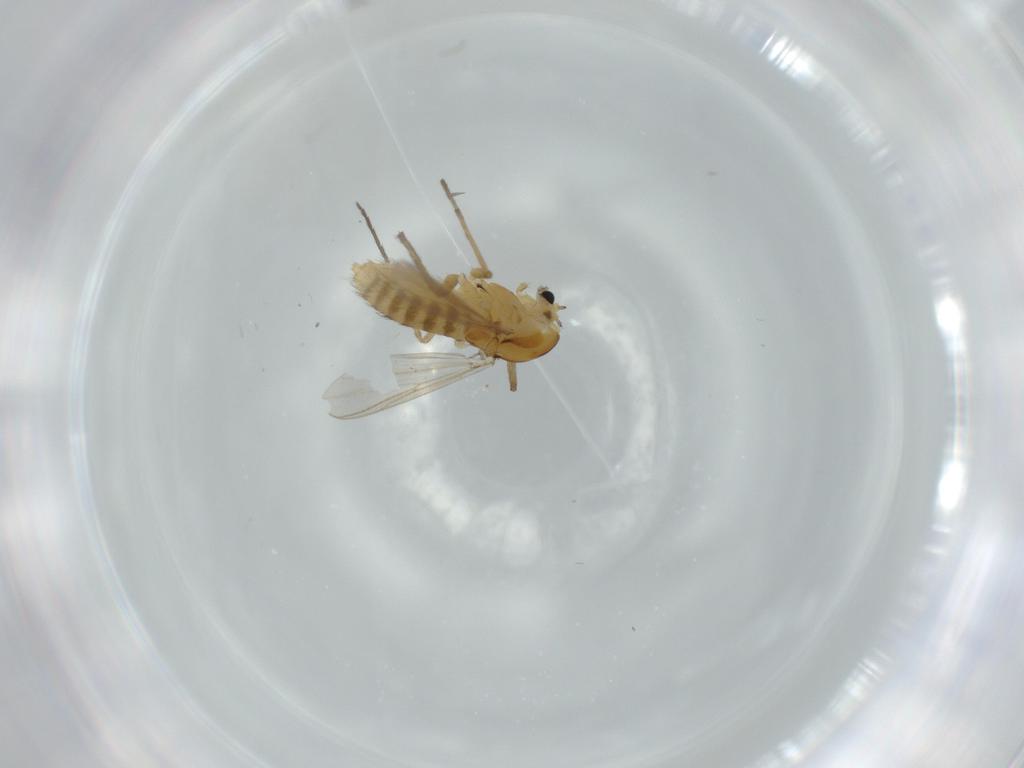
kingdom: Animalia
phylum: Arthropoda
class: Insecta
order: Diptera
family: Chironomidae
